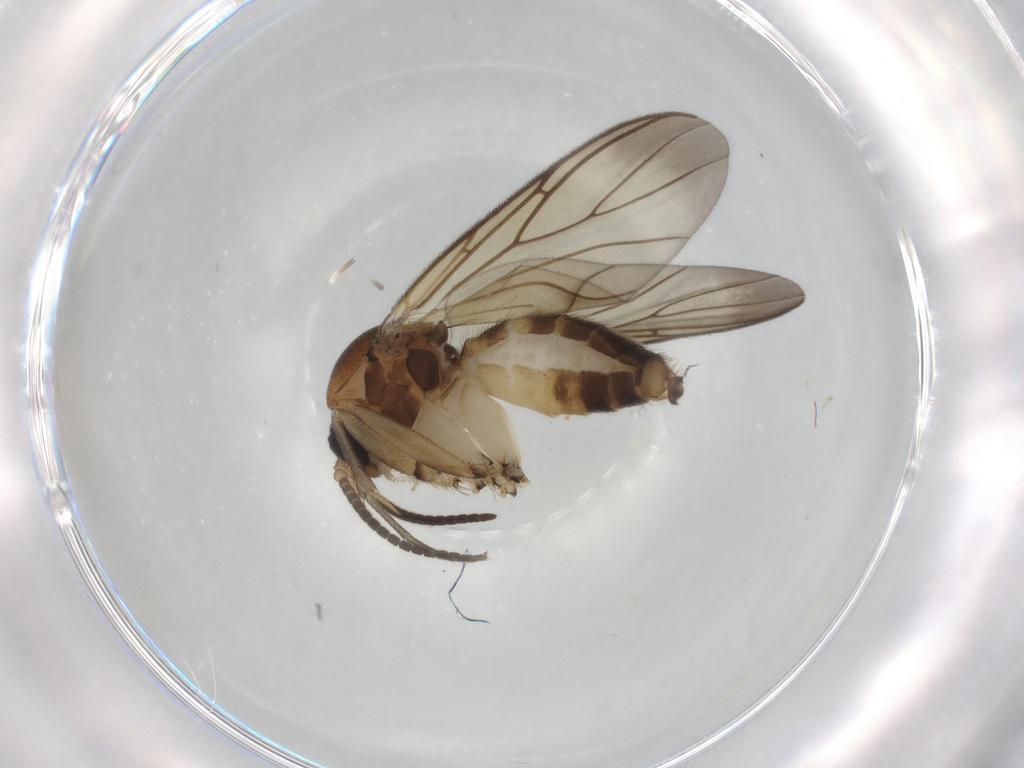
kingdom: Animalia
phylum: Arthropoda
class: Insecta
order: Diptera
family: Mycetophilidae
